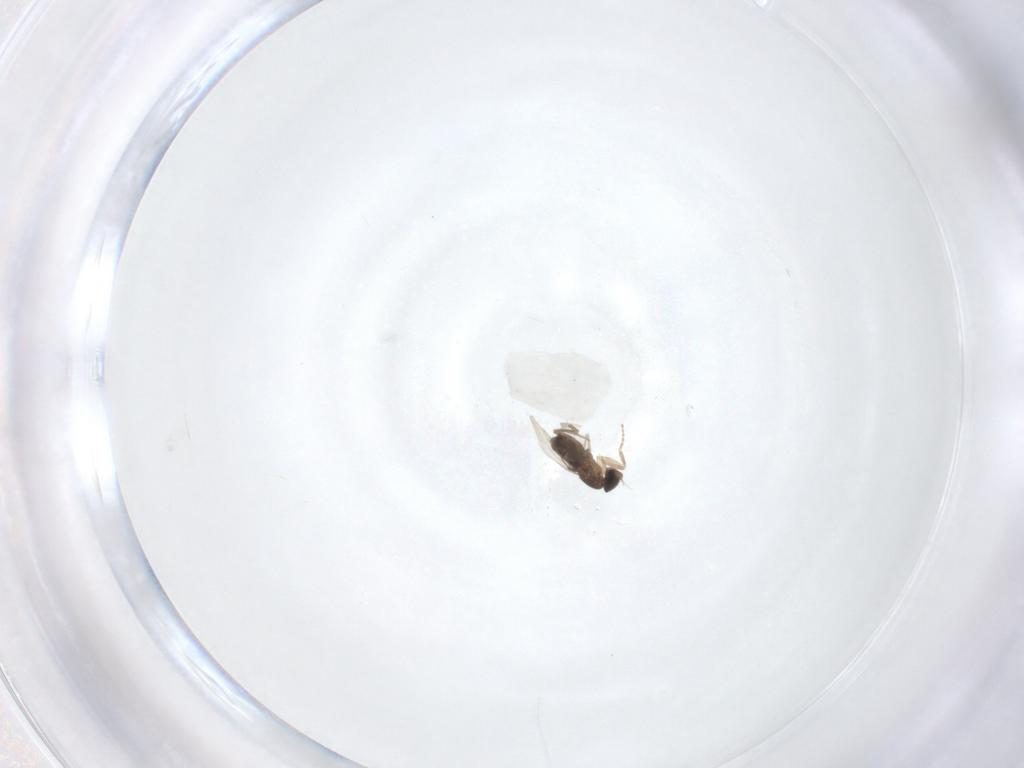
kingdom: Animalia
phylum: Arthropoda
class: Insecta
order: Diptera
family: Phoridae
